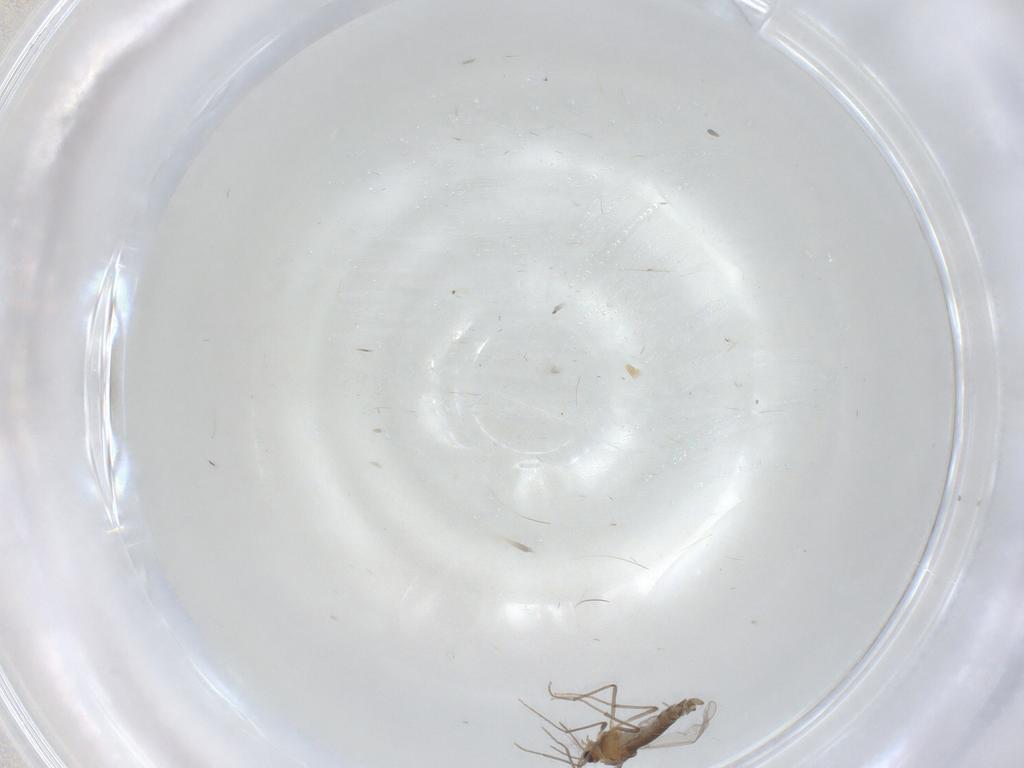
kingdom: Animalia
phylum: Arthropoda
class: Insecta
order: Diptera
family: Chironomidae
